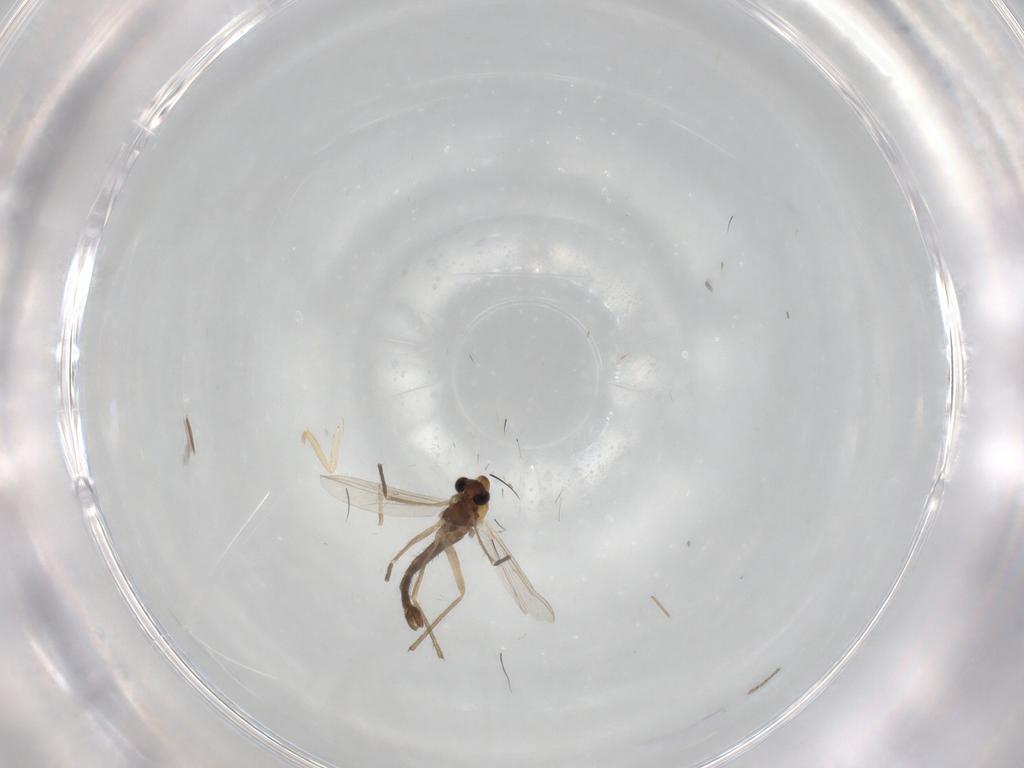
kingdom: Animalia
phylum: Arthropoda
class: Insecta
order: Diptera
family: Chironomidae
